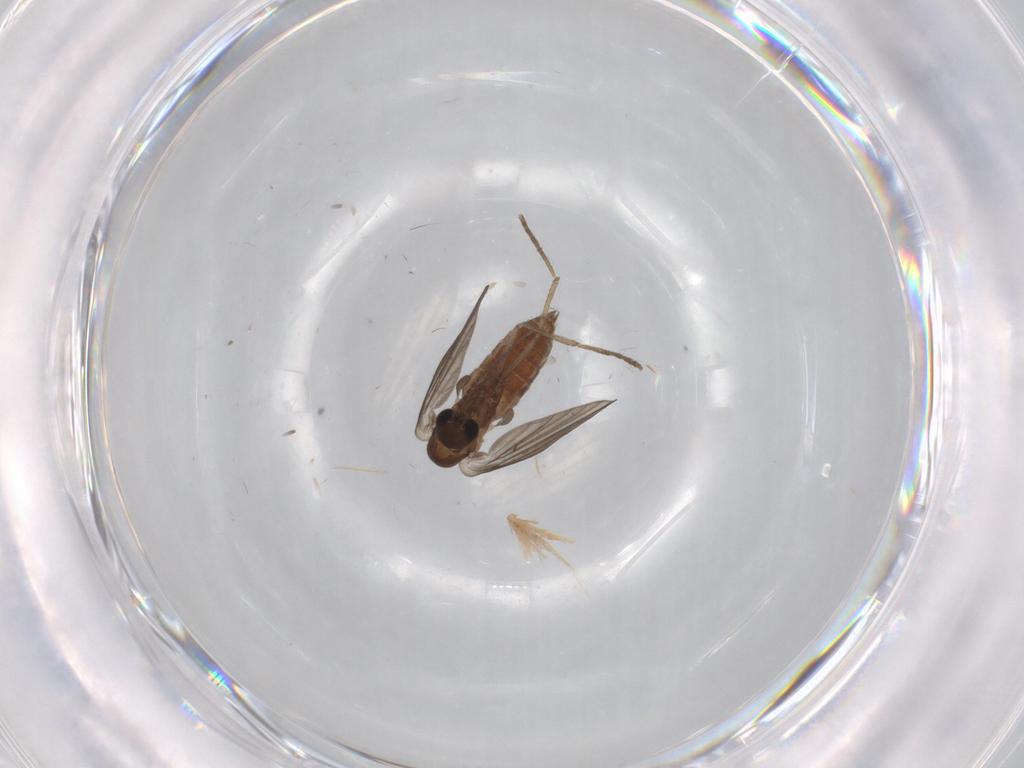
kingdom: Animalia
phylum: Arthropoda
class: Insecta
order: Diptera
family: Psychodidae
